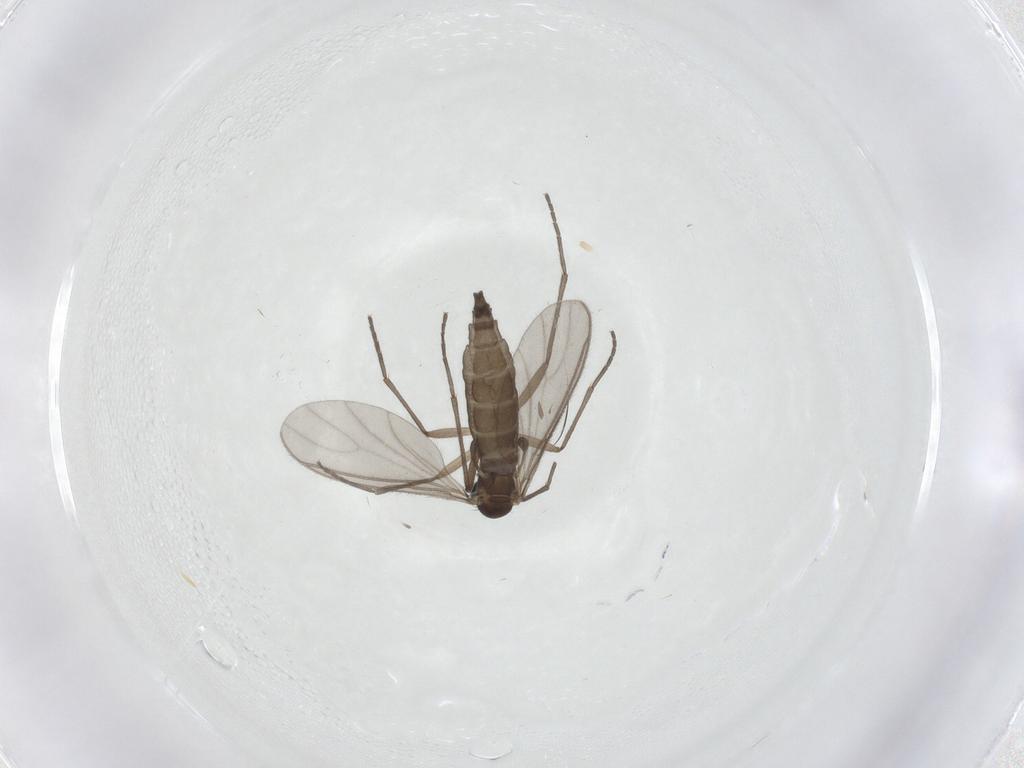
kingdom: Animalia
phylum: Arthropoda
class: Insecta
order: Diptera
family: Sciaridae
